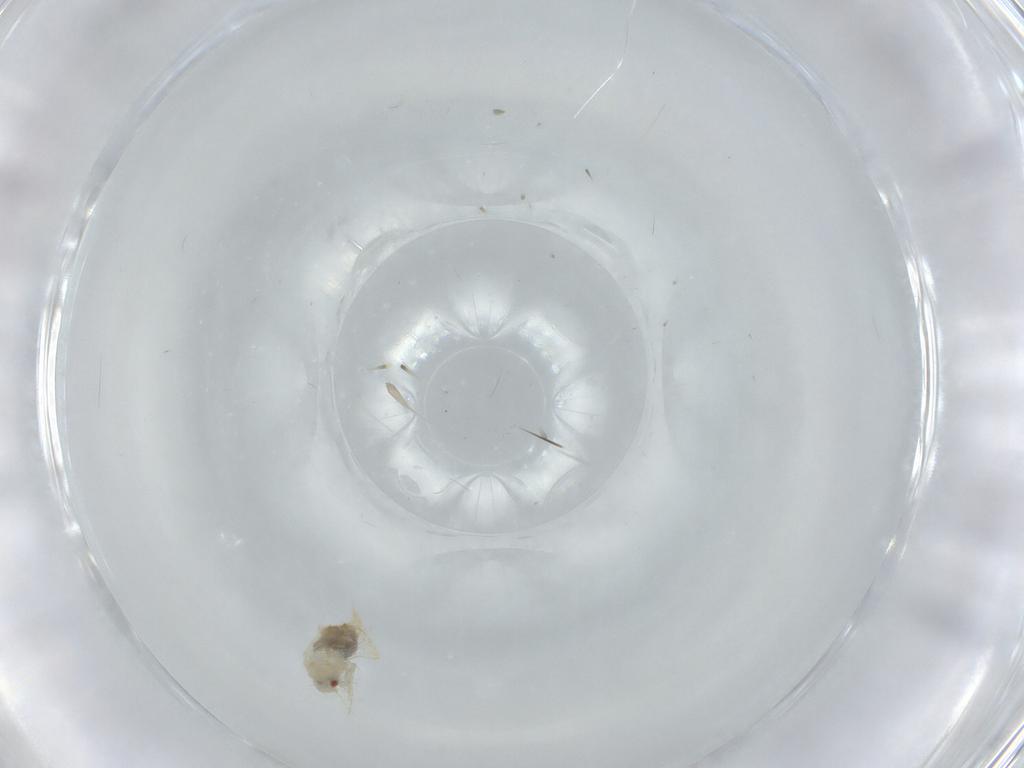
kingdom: Animalia
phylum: Arthropoda
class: Insecta
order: Hemiptera
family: Aleyrodidae
